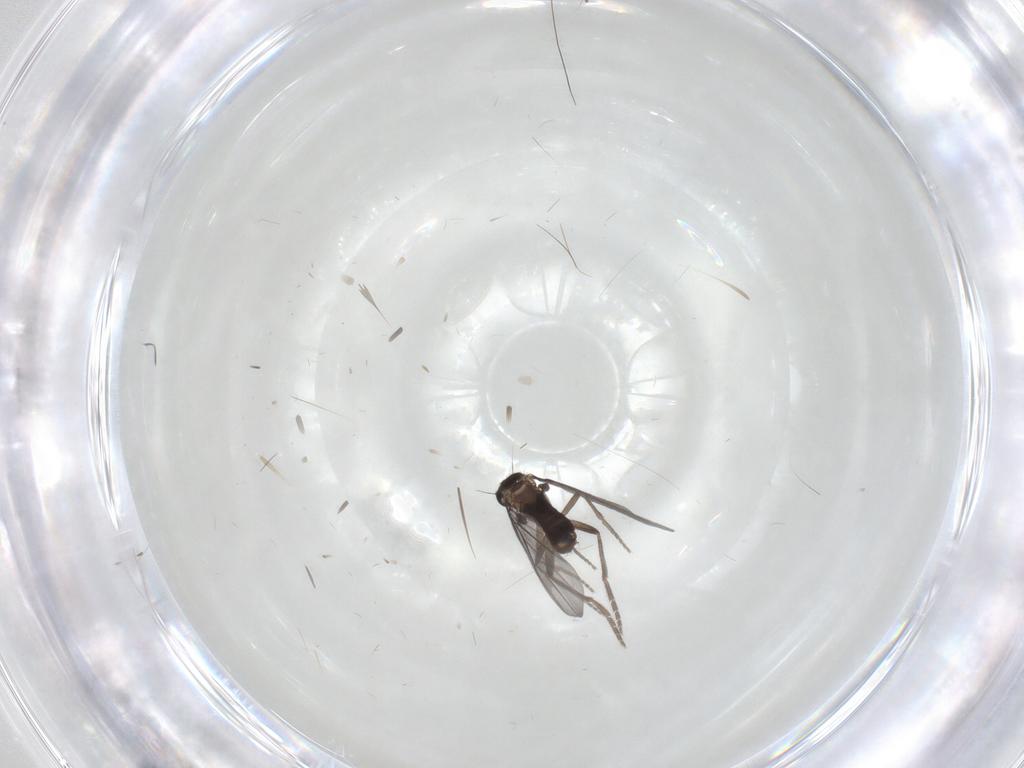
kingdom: Animalia
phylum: Arthropoda
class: Insecta
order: Diptera
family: Phoridae
